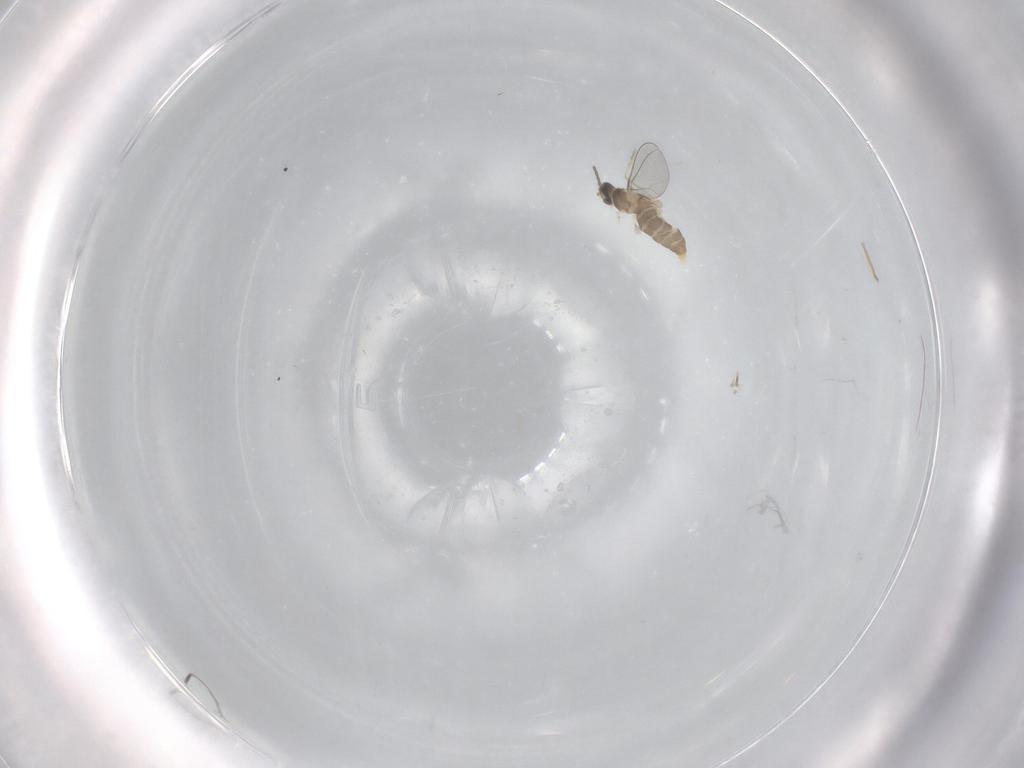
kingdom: Animalia
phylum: Arthropoda
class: Insecta
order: Diptera
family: Cecidomyiidae
